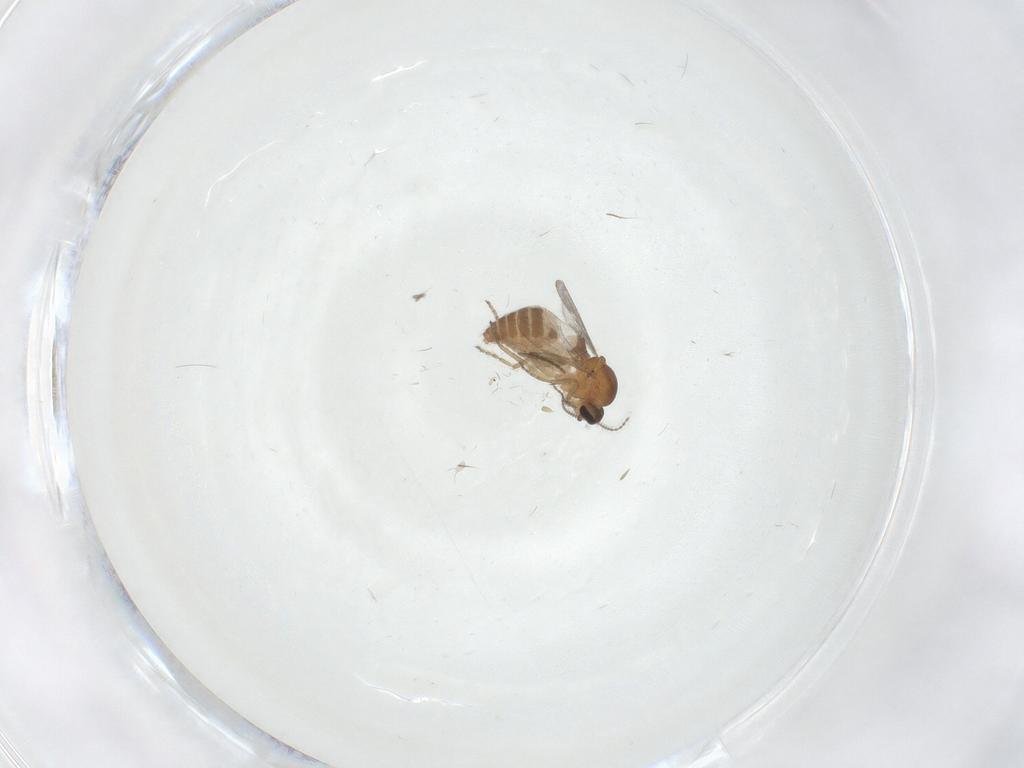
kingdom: Animalia
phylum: Arthropoda
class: Insecta
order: Diptera
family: Ceratopogonidae
